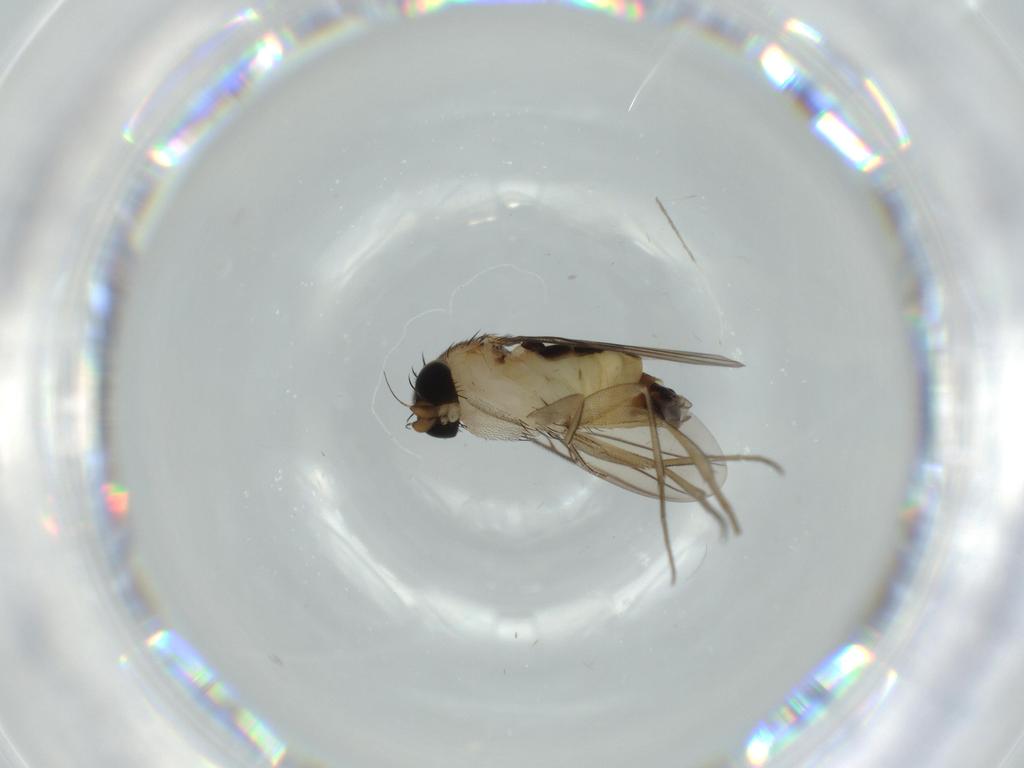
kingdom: Animalia
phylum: Arthropoda
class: Insecta
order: Diptera
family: Phoridae
